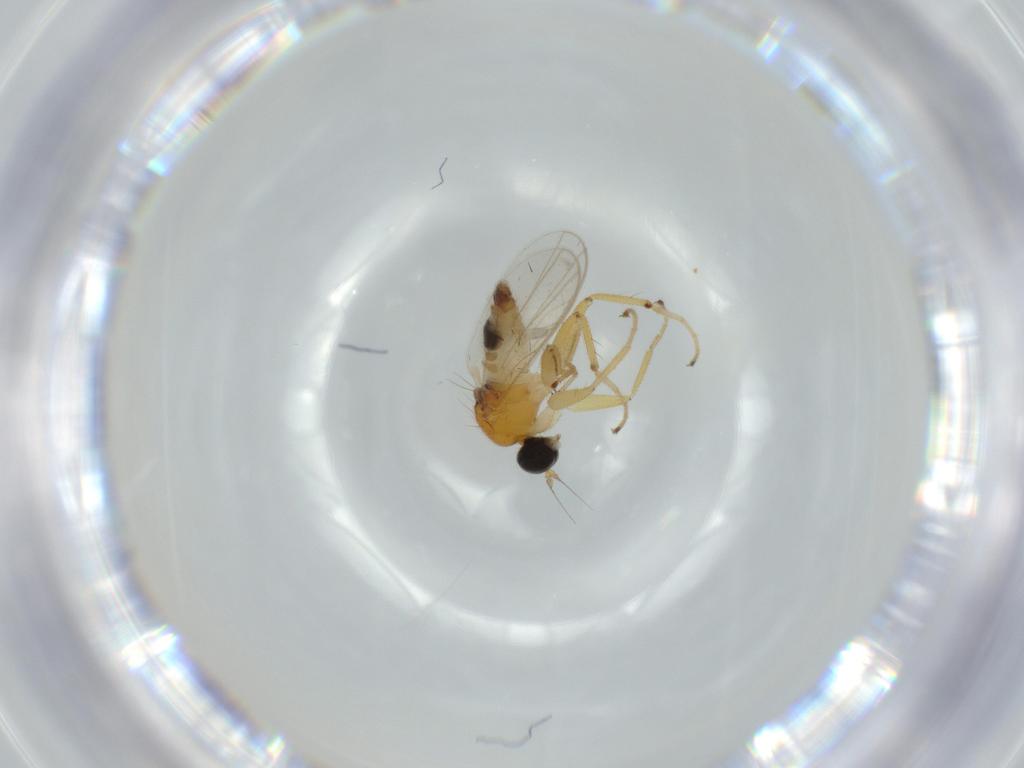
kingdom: Animalia
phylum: Arthropoda
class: Insecta
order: Diptera
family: Hybotidae
